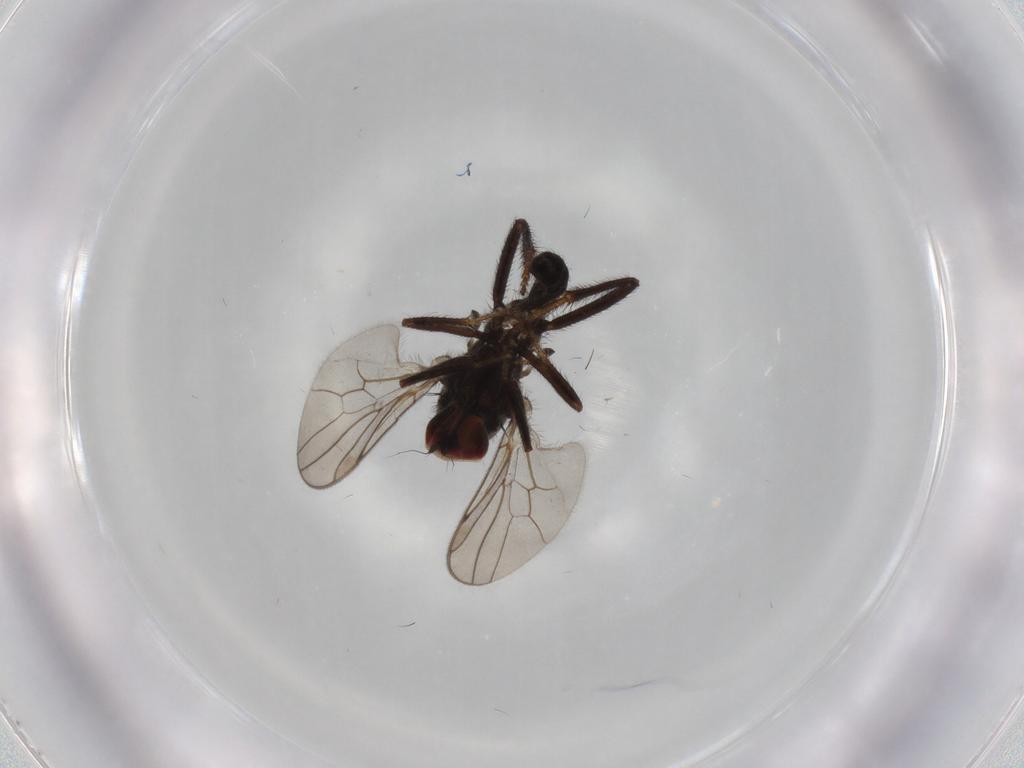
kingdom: Animalia
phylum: Arthropoda
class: Insecta
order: Diptera
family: Hybotidae
